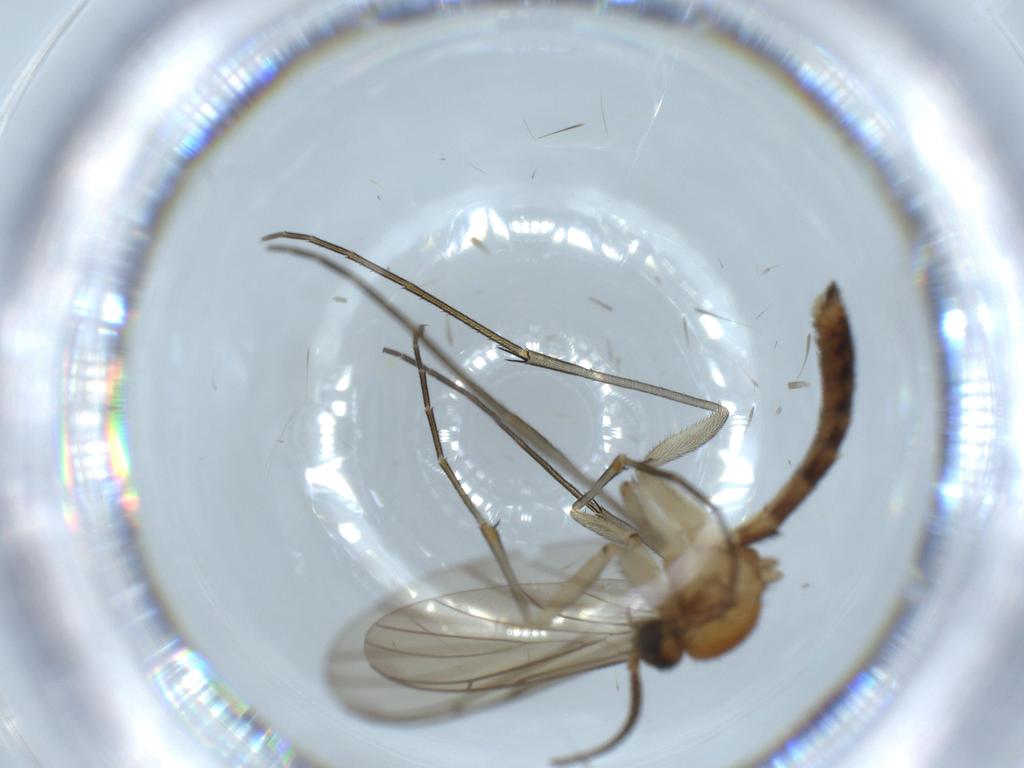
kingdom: Animalia
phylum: Arthropoda
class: Insecta
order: Diptera
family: Keroplatidae
